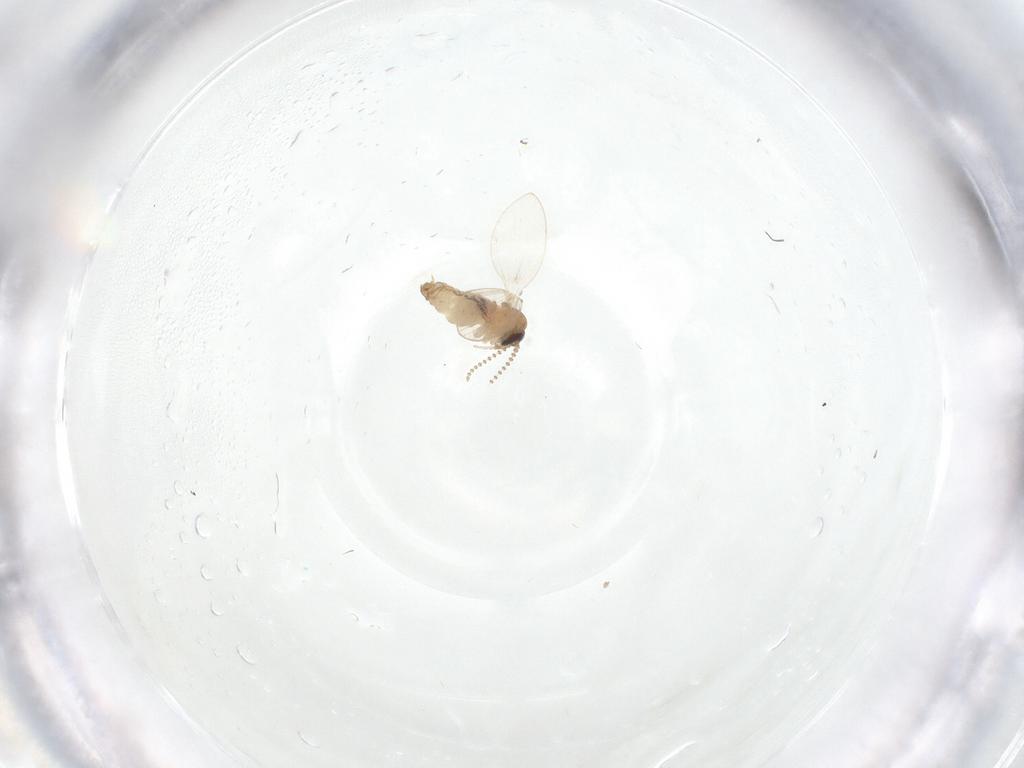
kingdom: Animalia
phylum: Arthropoda
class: Insecta
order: Diptera
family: Psychodidae
